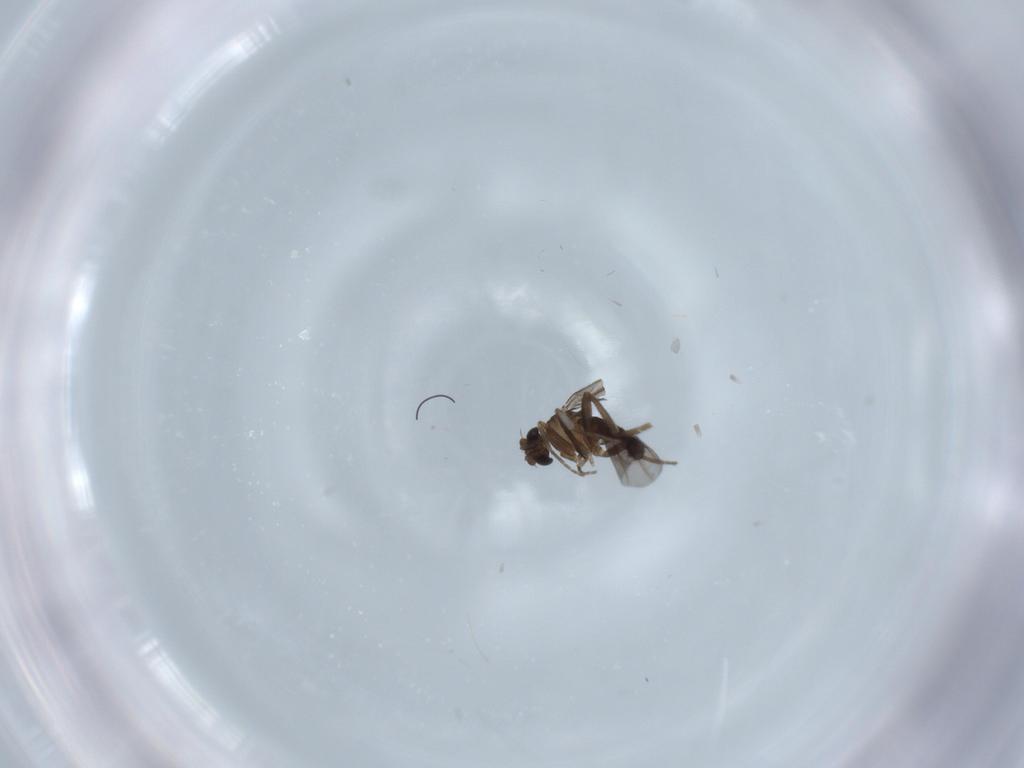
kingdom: Animalia
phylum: Arthropoda
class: Insecta
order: Diptera
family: Phoridae
